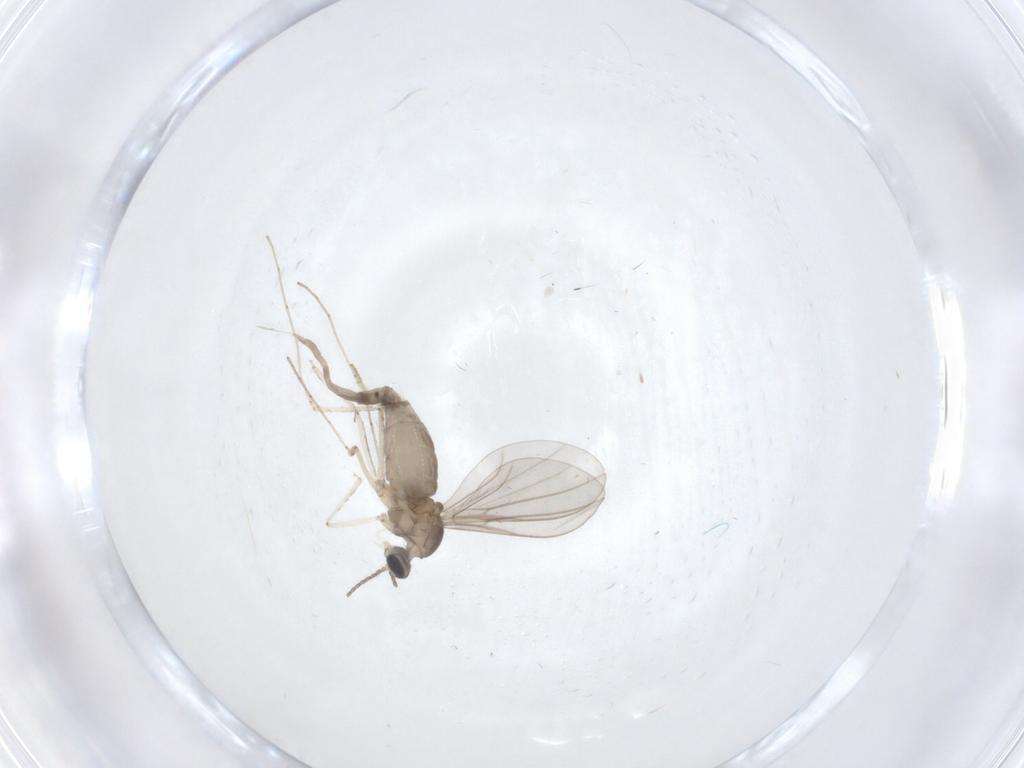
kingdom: Animalia
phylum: Arthropoda
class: Insecta
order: Diptera
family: Cecidomyiidae
